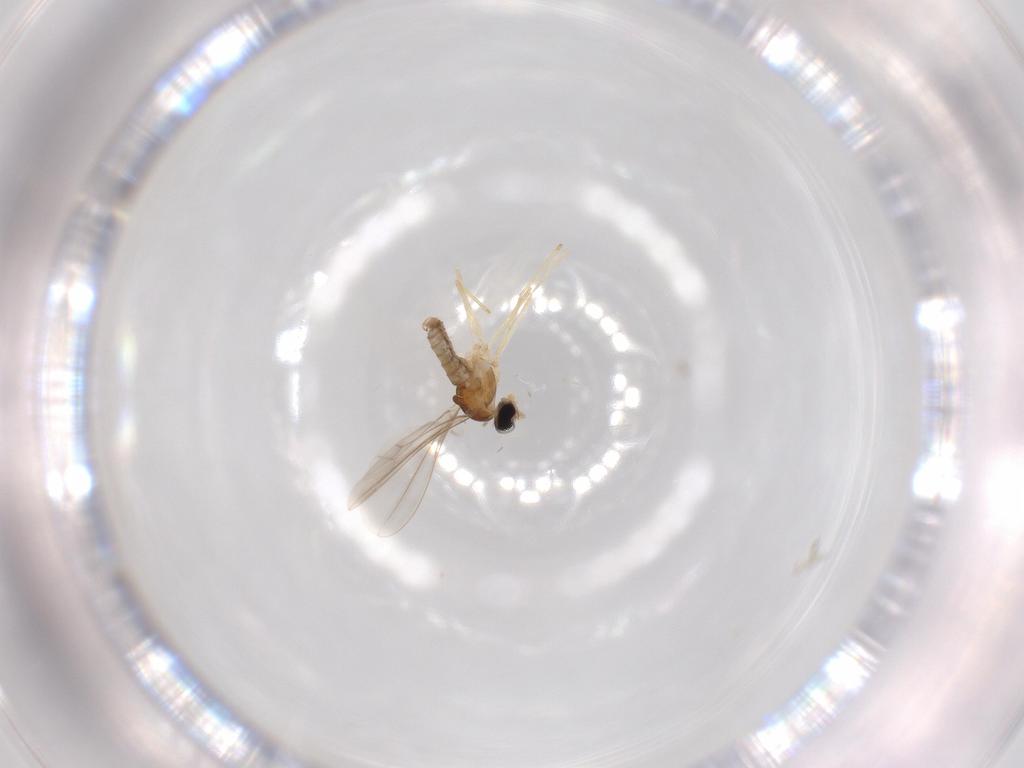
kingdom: Animalia
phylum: Arthropoda
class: Insecta
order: Diptera
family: Cecidomyiidae
